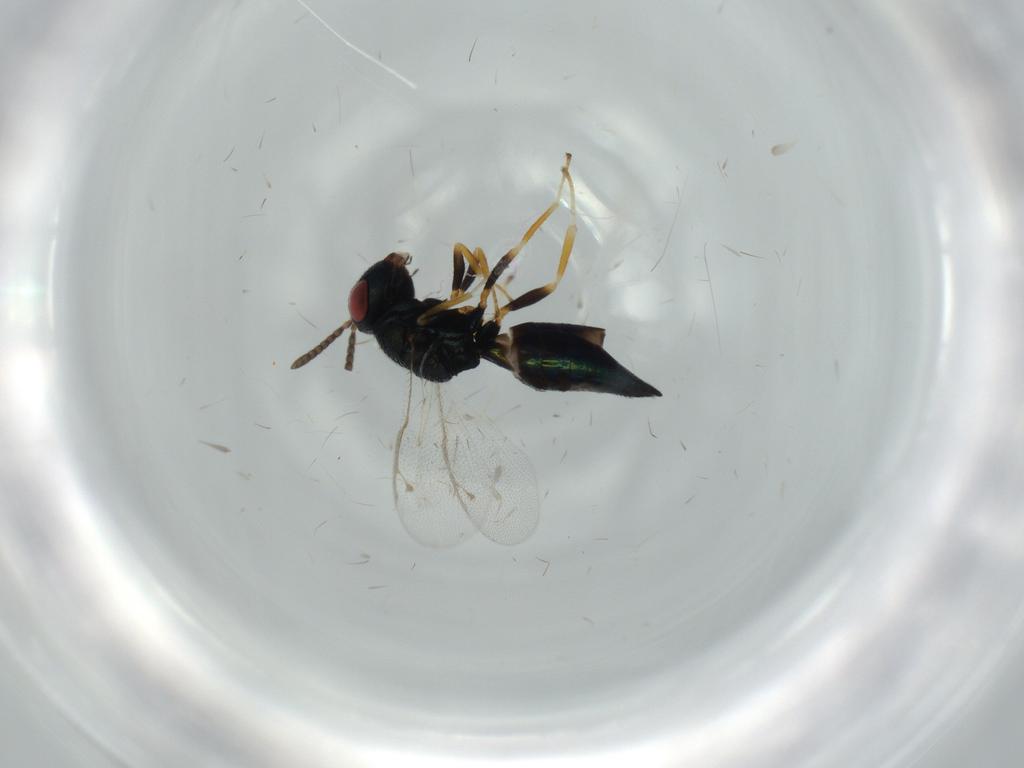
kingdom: Animalia
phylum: Arthropoda
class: Insecta
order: Hymenoptera
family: Pteromalidae
